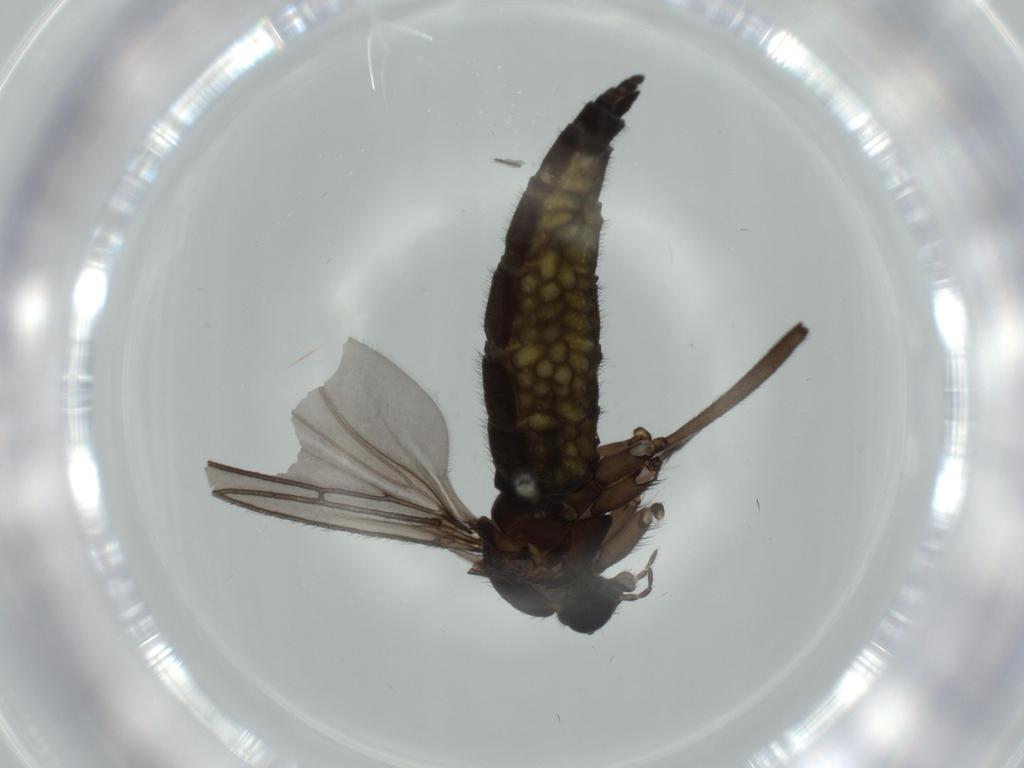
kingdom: Animalia
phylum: Arthropoda
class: Insecta
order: Diptera
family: Sciaridae
